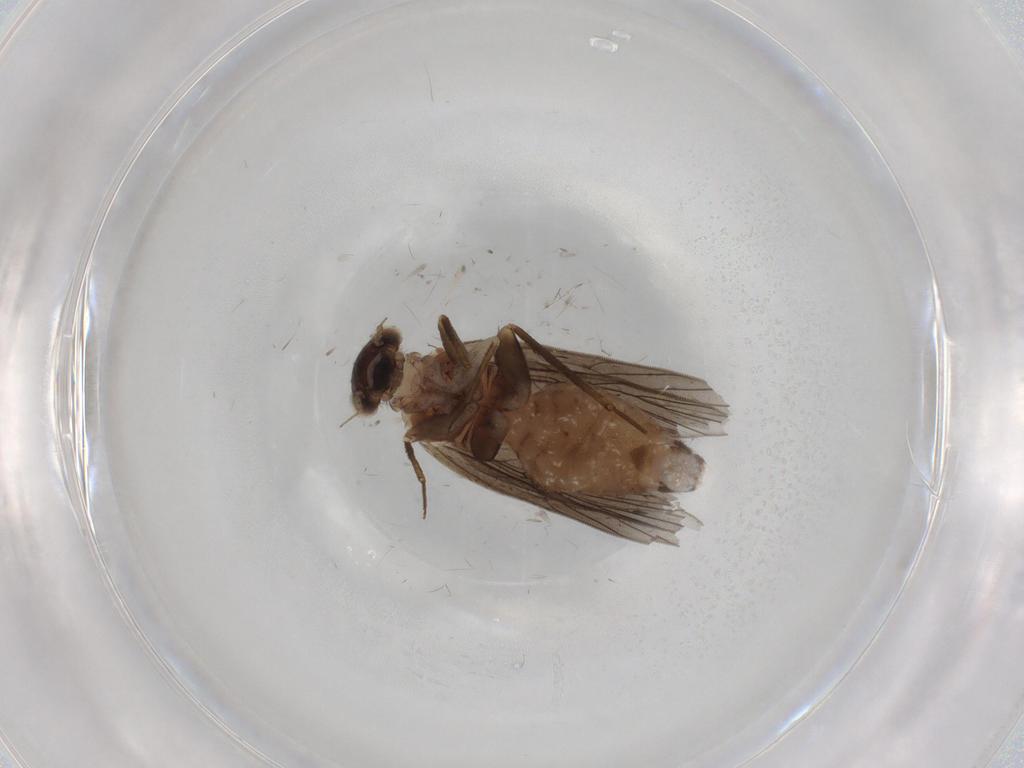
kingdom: Animalia
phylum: Arthropoda
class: Insecta
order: Psocodea
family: Lepidopsocidae
